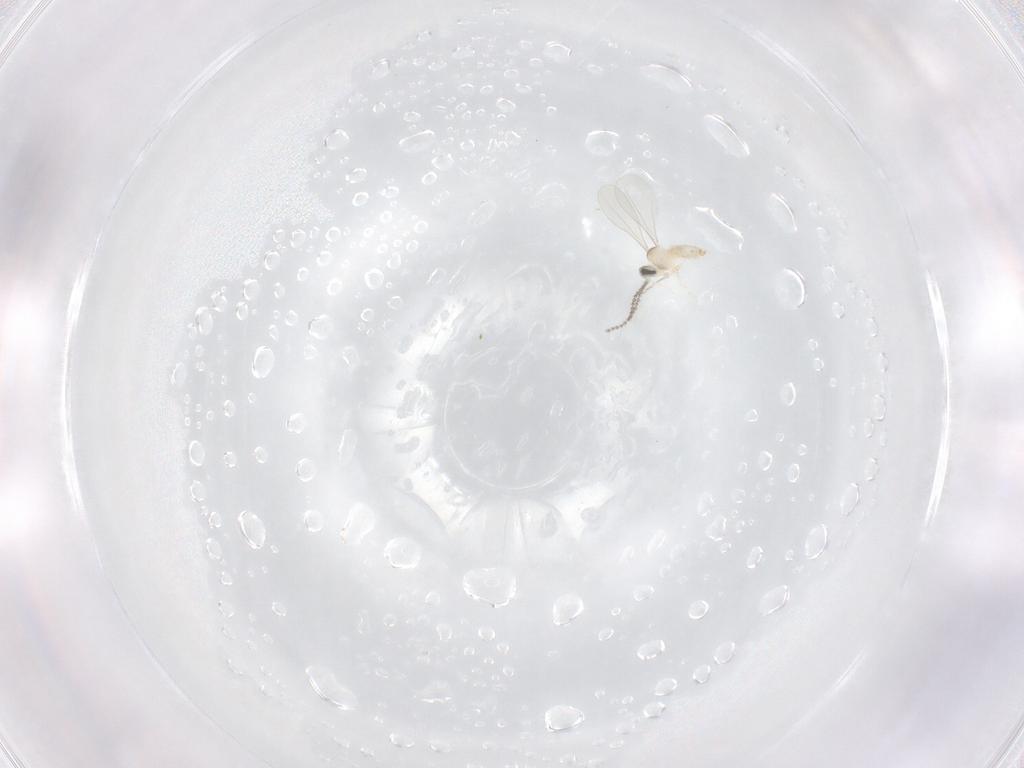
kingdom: Animalia
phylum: Arthropoda
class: Insecta
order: Diptera
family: Cecidomyiidae
